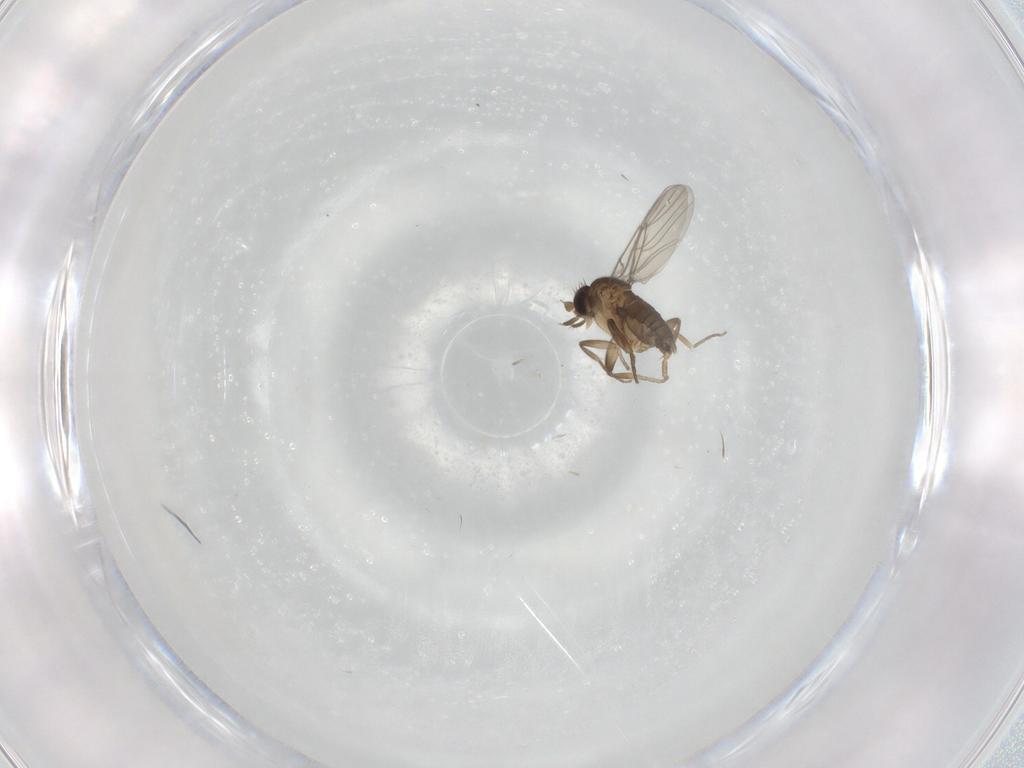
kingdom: Animalia
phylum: Arthropoda
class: Insecta
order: Diptera
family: Phoridae
